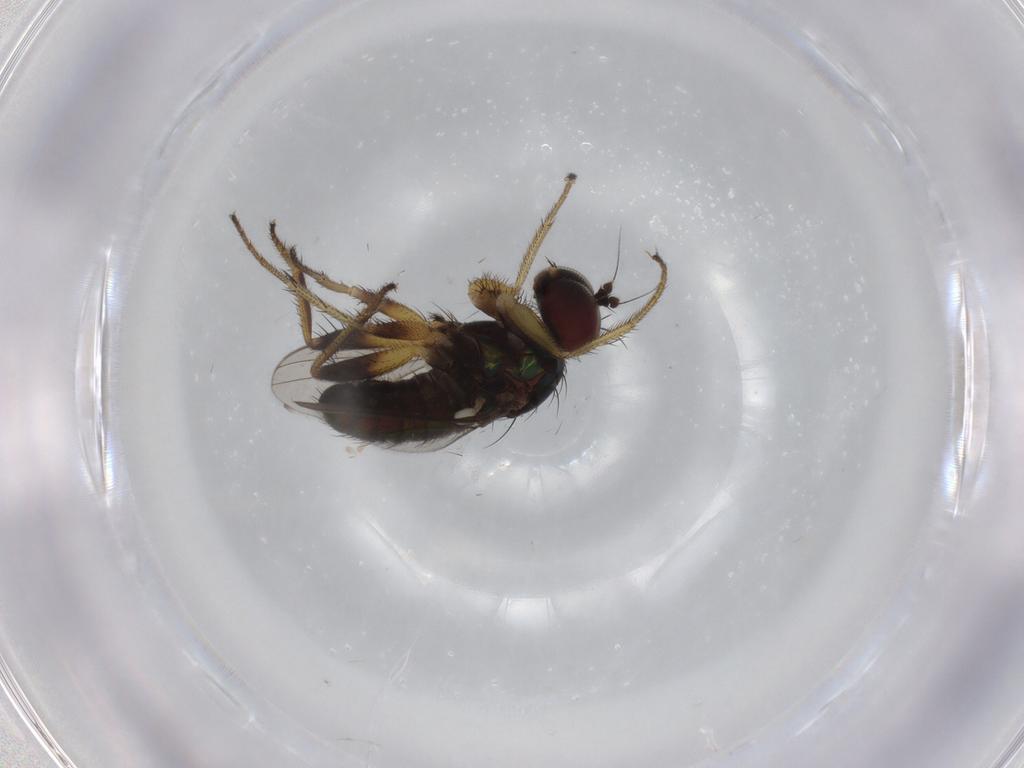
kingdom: Animalia
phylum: Arthropoda
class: Insecta
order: Diptera
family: Dolichopodidae
